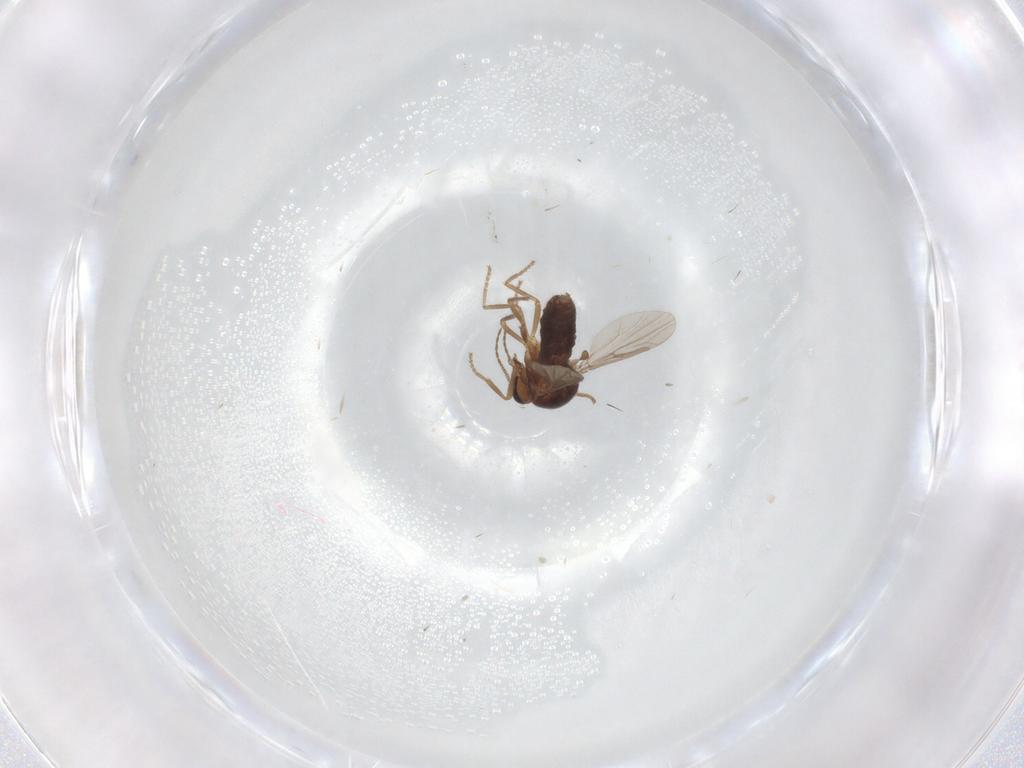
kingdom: Animalia
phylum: Arthropoda
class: Insecta
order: Diptera
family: Ceratopogonidae
